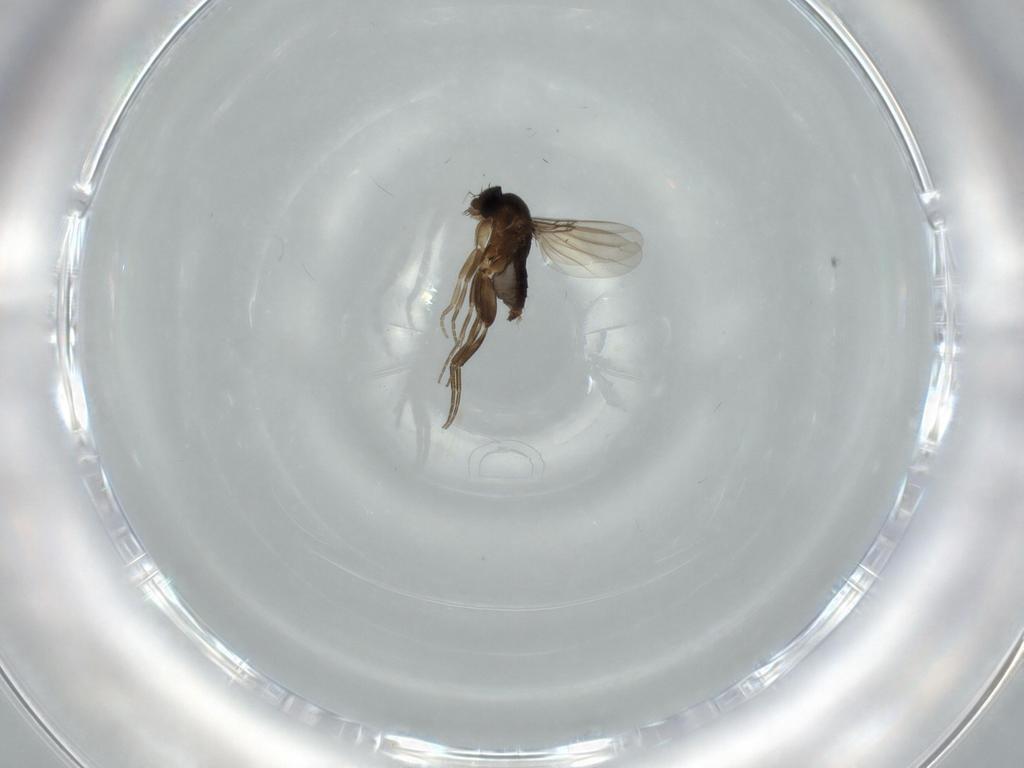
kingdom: Animalia
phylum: Arthropoda
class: Insecta
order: Diptera
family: Phoridae
